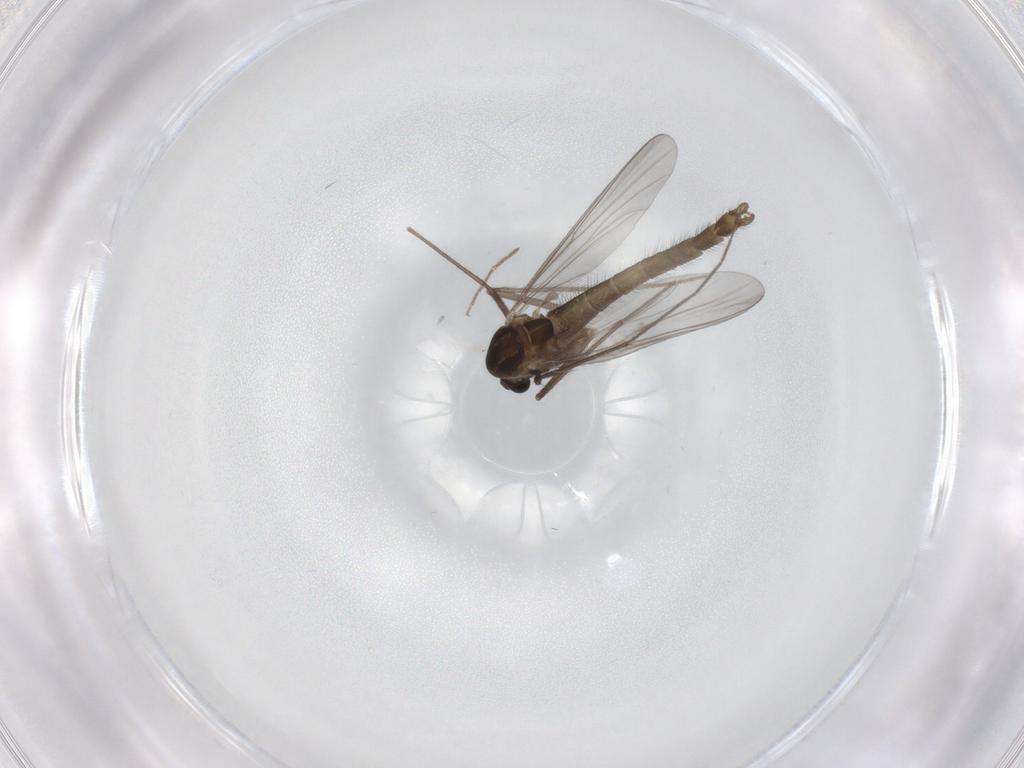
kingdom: Animalia
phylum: Arthropoda
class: Insecta
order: Diptera
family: Chironomidae
